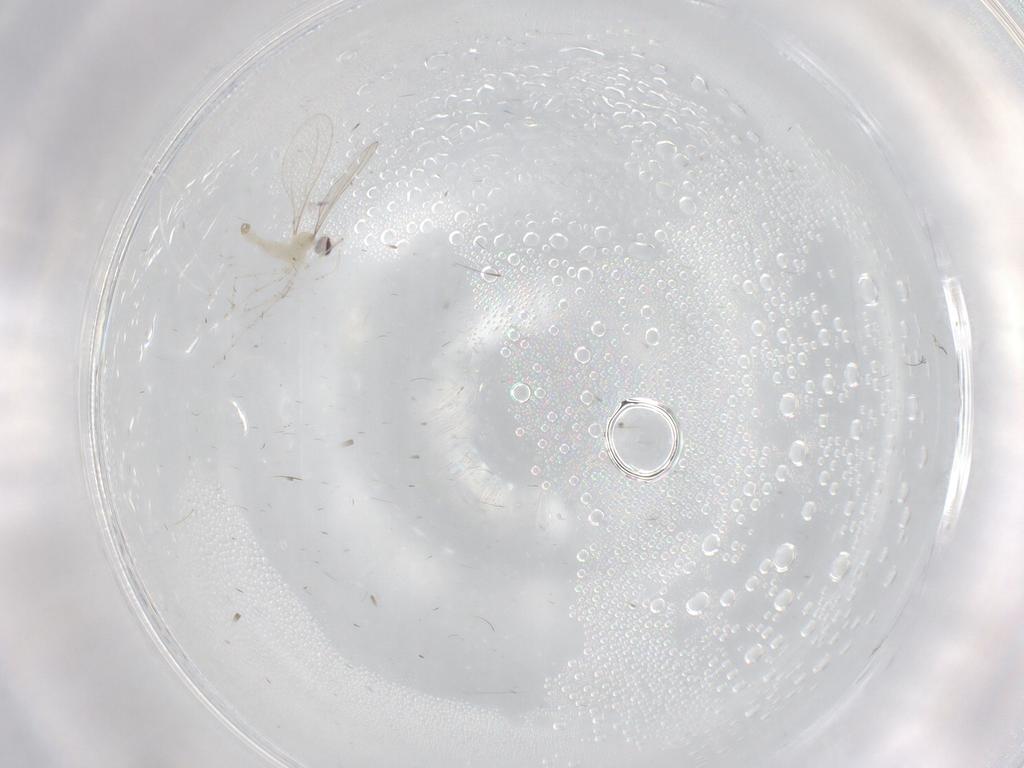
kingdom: Animalia
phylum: Arthropoda
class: Insecta
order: Diptera
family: Cecidomyiidae
